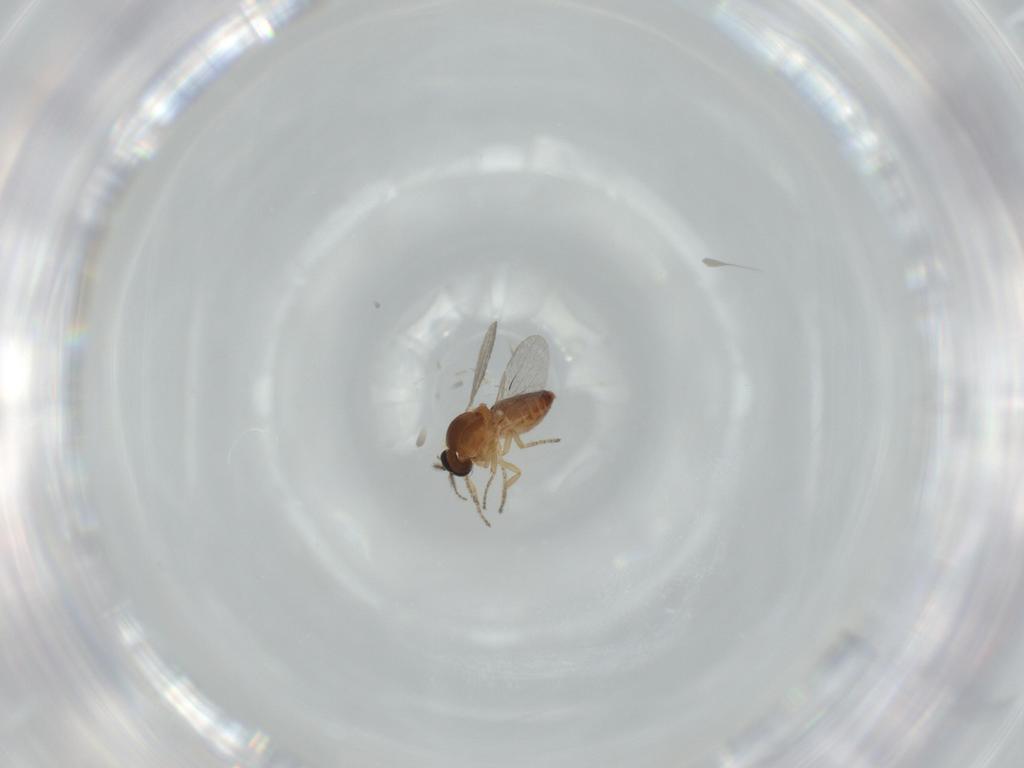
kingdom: Animalia
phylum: Arthropoda
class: Insecta
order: Diptera
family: Ceratopogonidae
